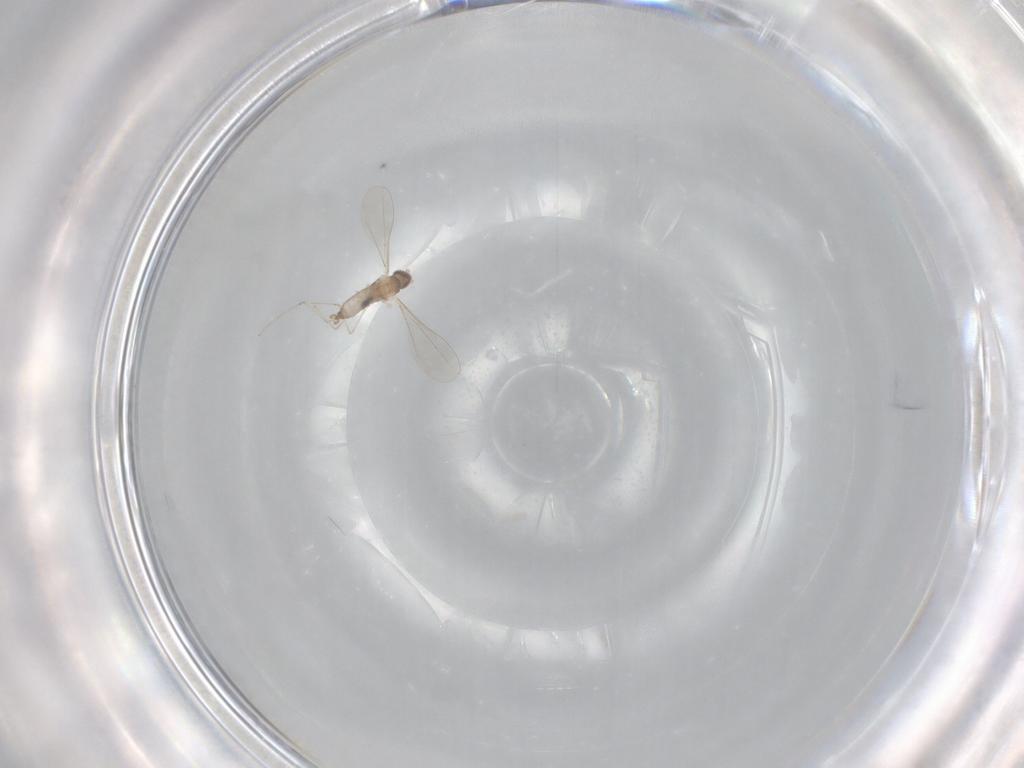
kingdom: Animalia
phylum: Arthropoda
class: Insecta
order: Diptera
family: Cecidomyiidae
